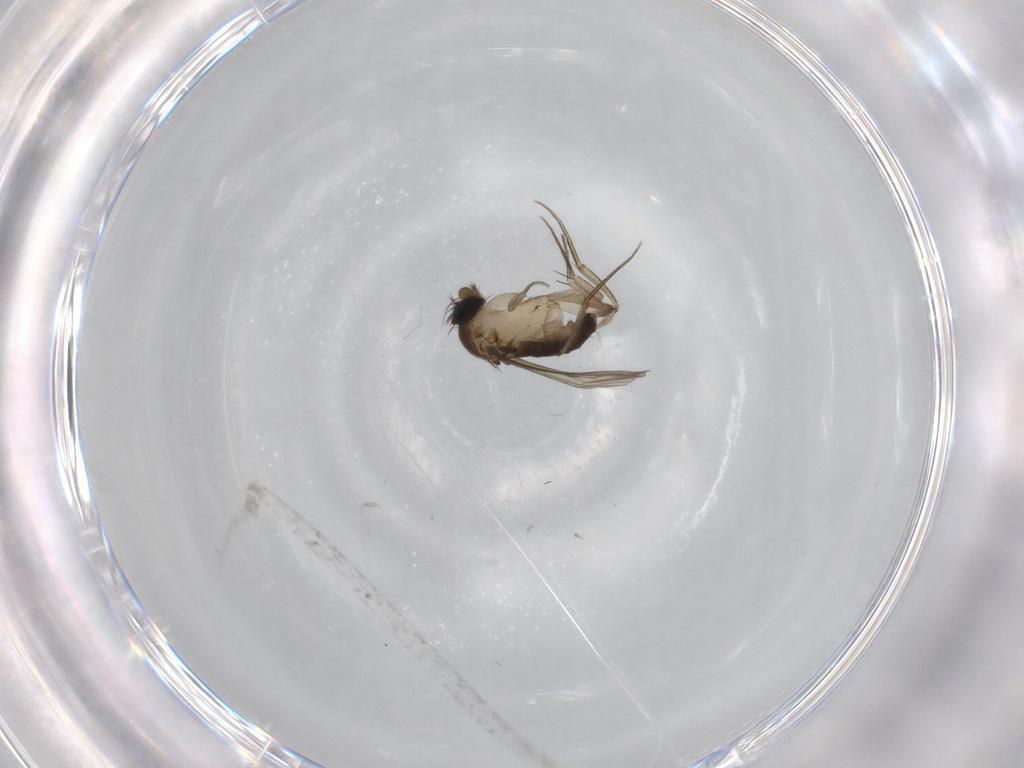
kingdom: Animalia
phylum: Arthropoda
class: Insecta
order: Diptera
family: Phoridae
